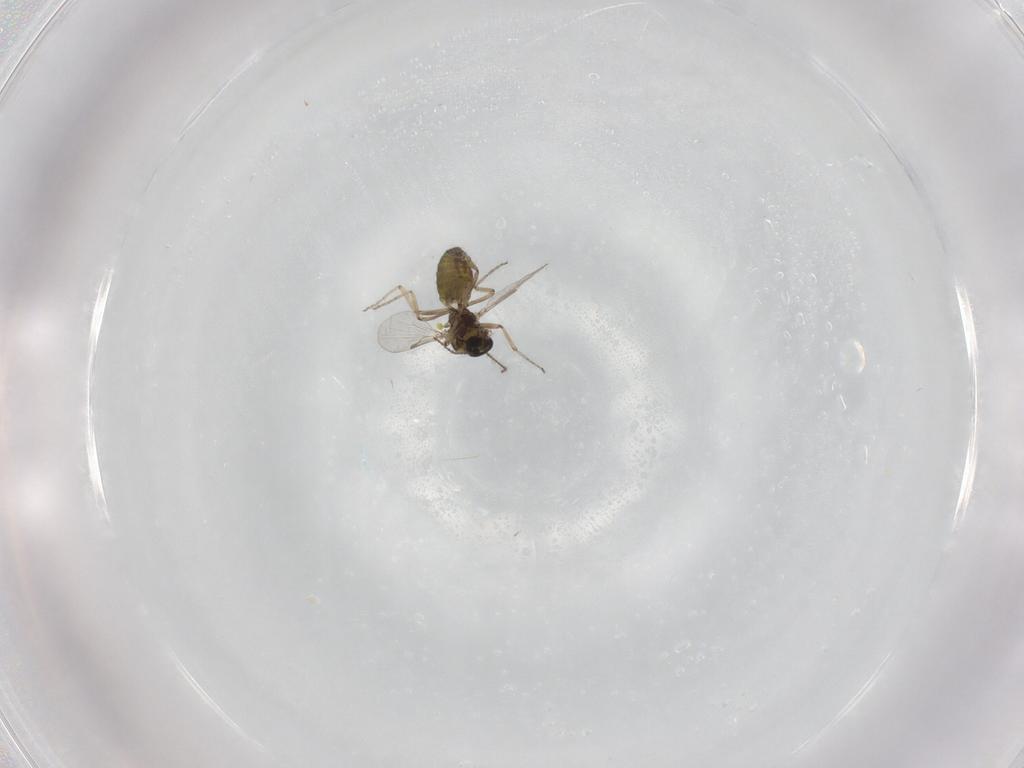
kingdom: Animalia
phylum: Arthropoda
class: Insecta
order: Diptera
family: Ceratopogonidae
